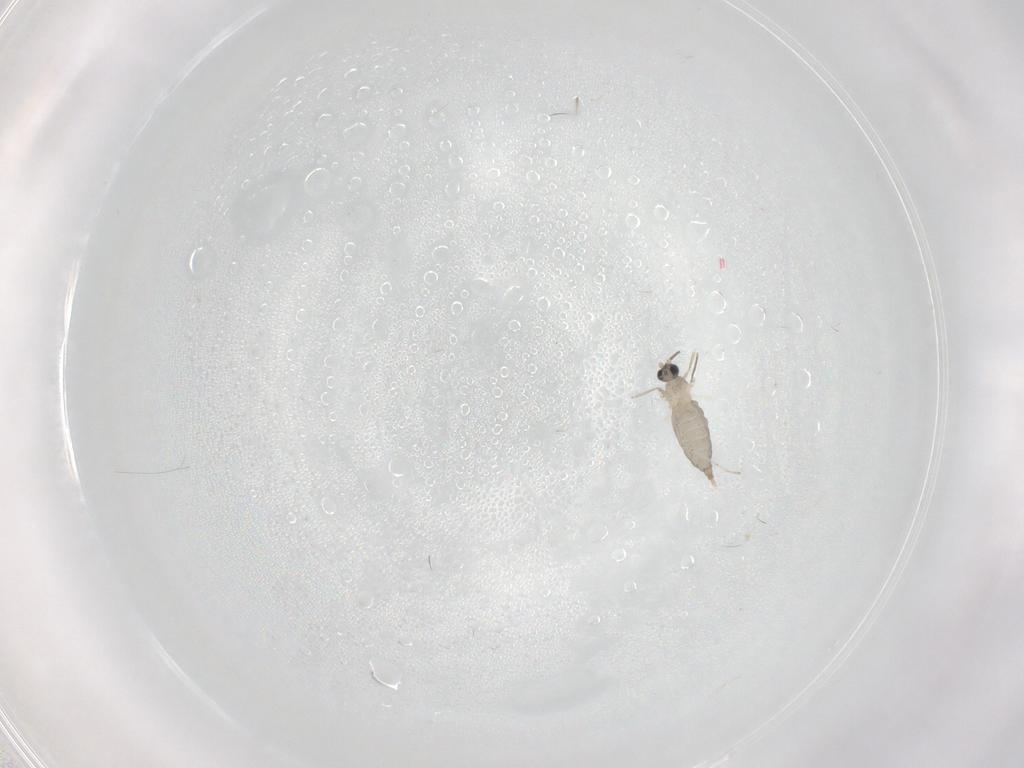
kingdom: Animalia
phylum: Arthropoda
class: Insecta
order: Diptera
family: Cecidomyiidae
